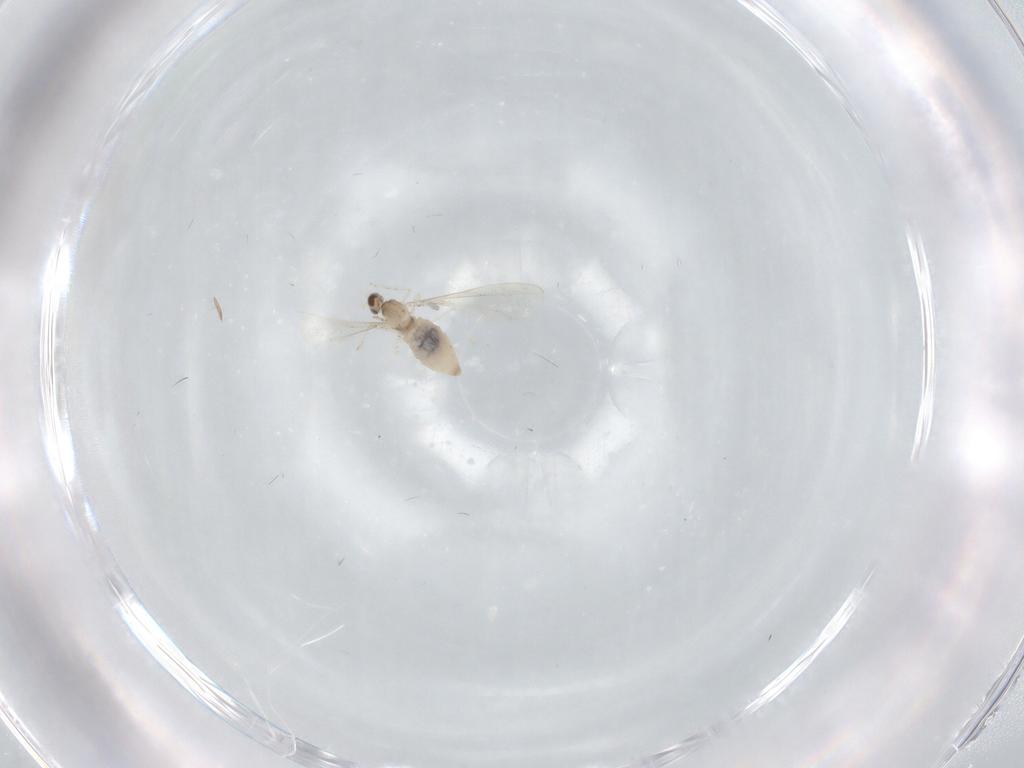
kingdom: Animalia
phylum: Arthropoda
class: Insecta
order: Diptera
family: Cecidomyiidae
